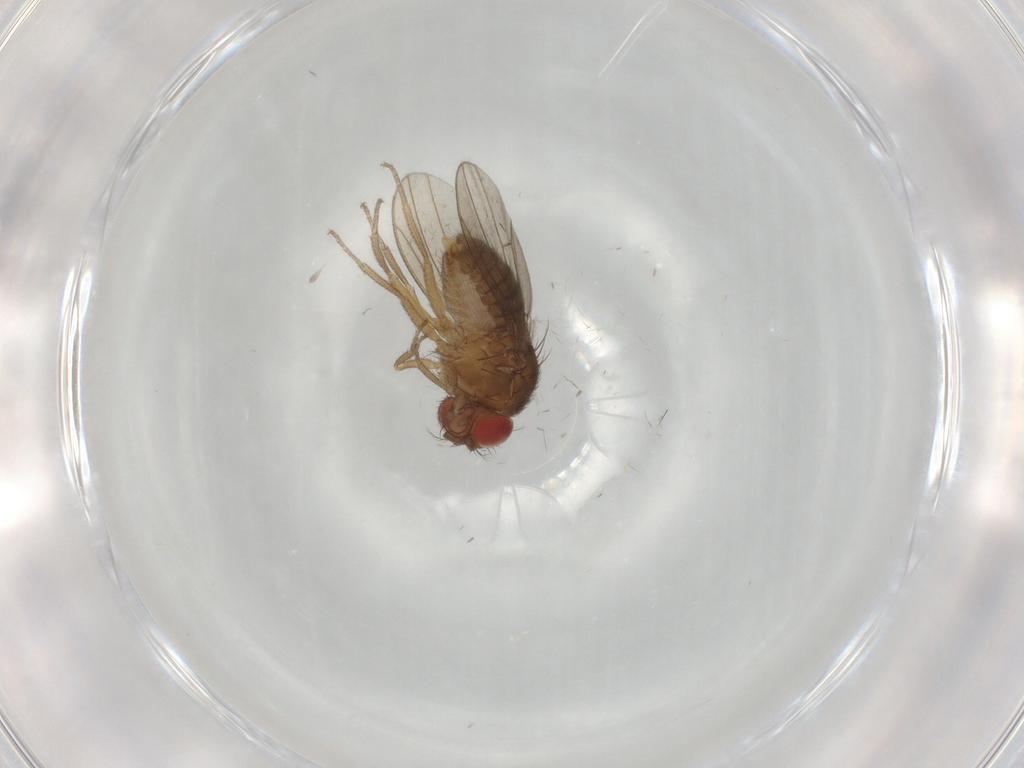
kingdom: Animalia
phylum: Arthropoda
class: Insecta
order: Diptera
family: Drosophilidae
